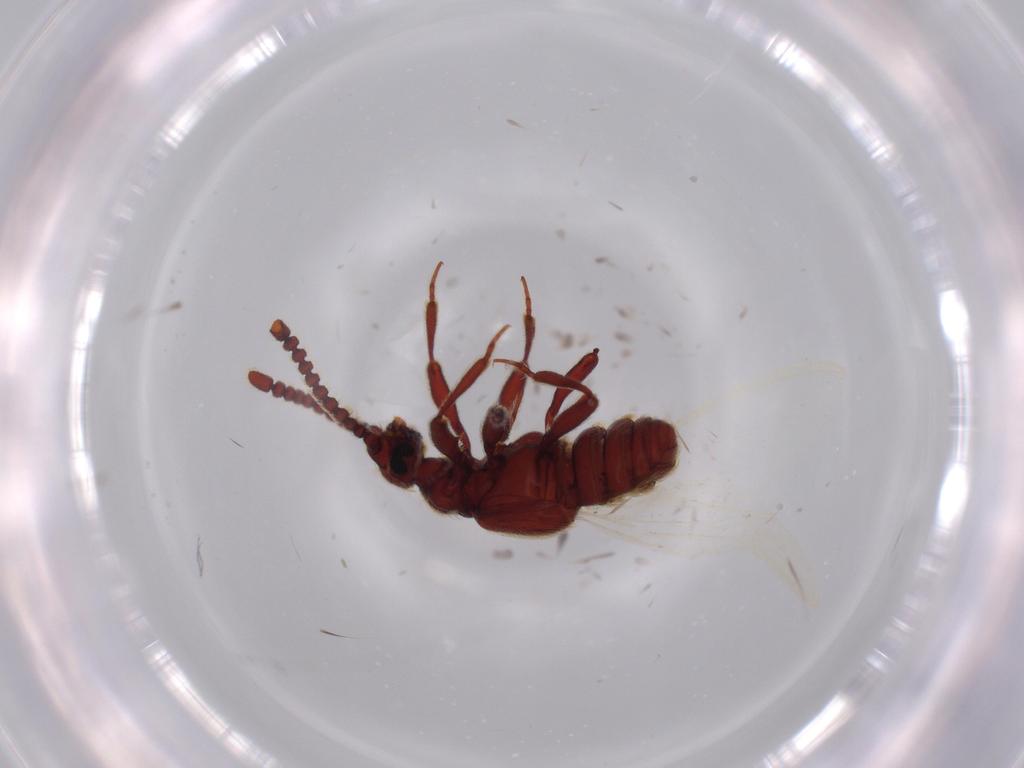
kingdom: Animalia
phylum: Arthropoda
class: Insecta
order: Coleoptera
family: Staphylinidae
